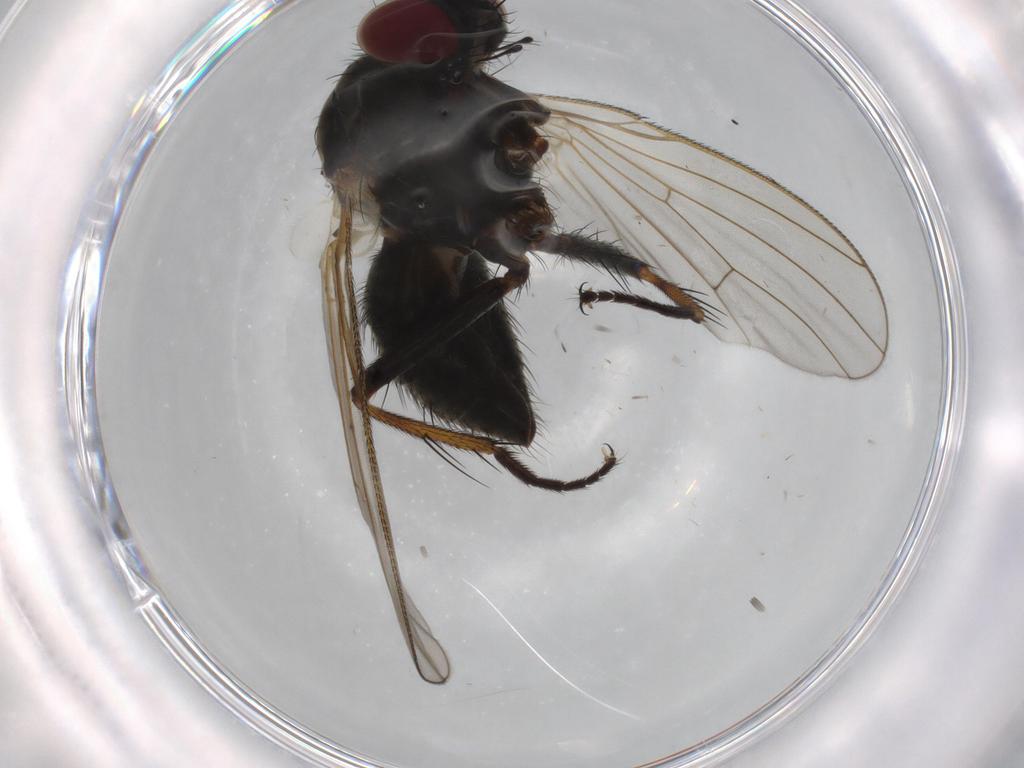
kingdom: Animalia
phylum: Arthropoda
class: Insecta
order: Diptera
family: Muscidae
